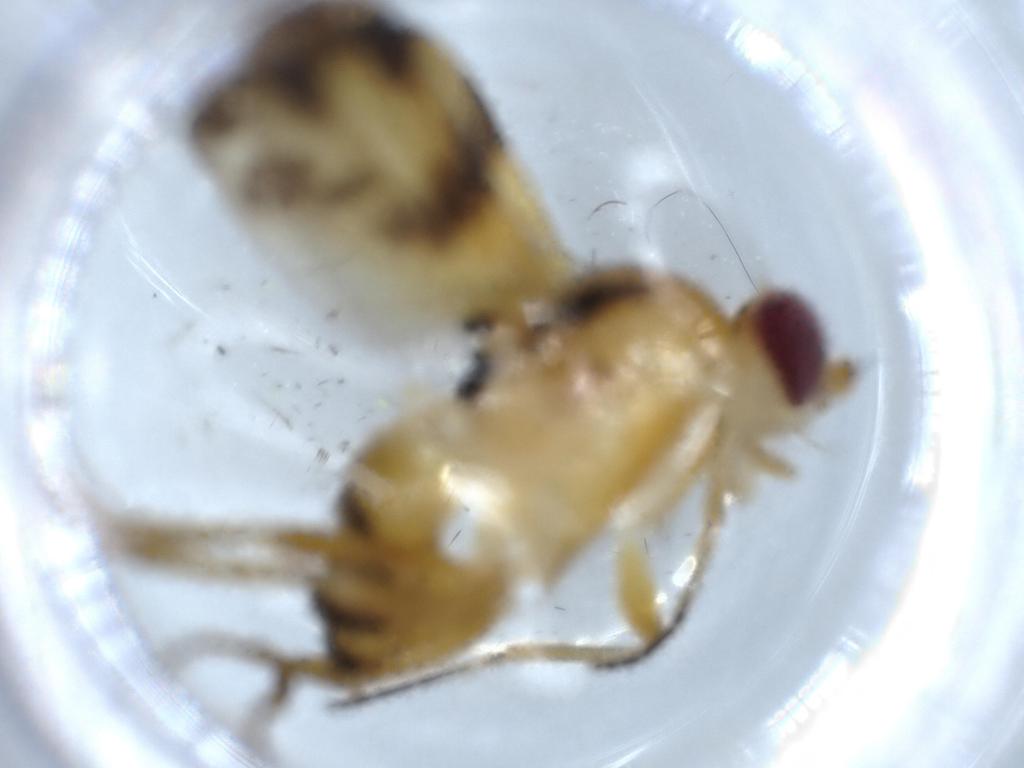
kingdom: Animalia
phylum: Arthropoda
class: Insecta
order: Diptera
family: Clusiidae
